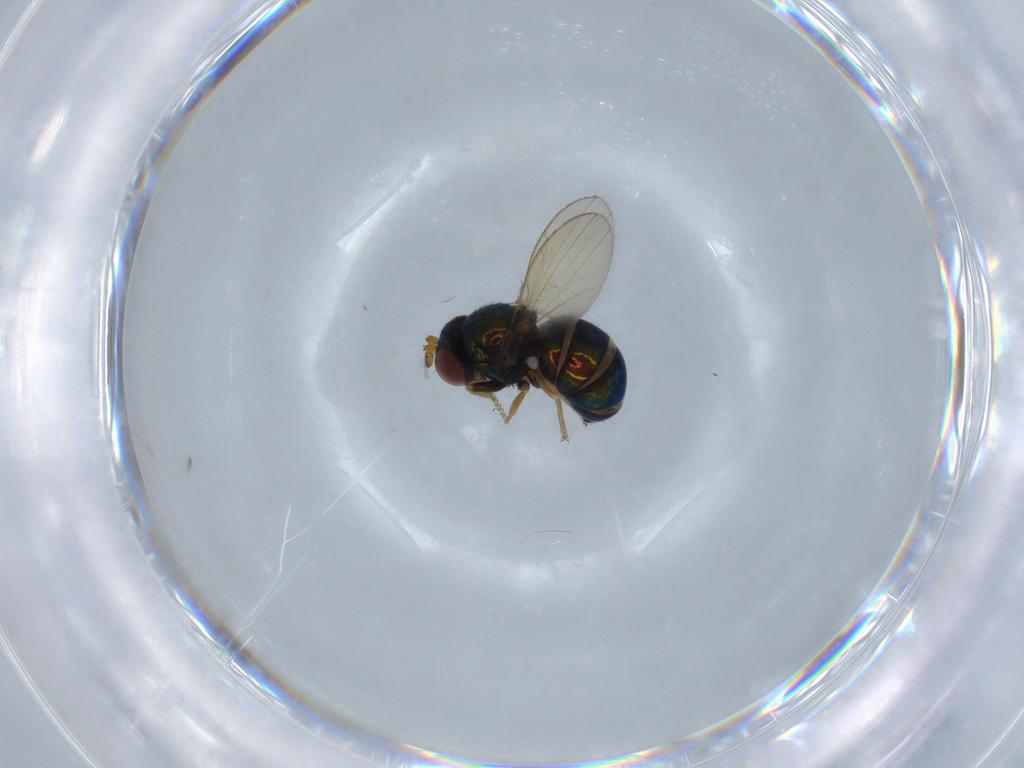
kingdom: Animalia
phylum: Arthropoda
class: Insecta
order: Diptera
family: Ephydridae
